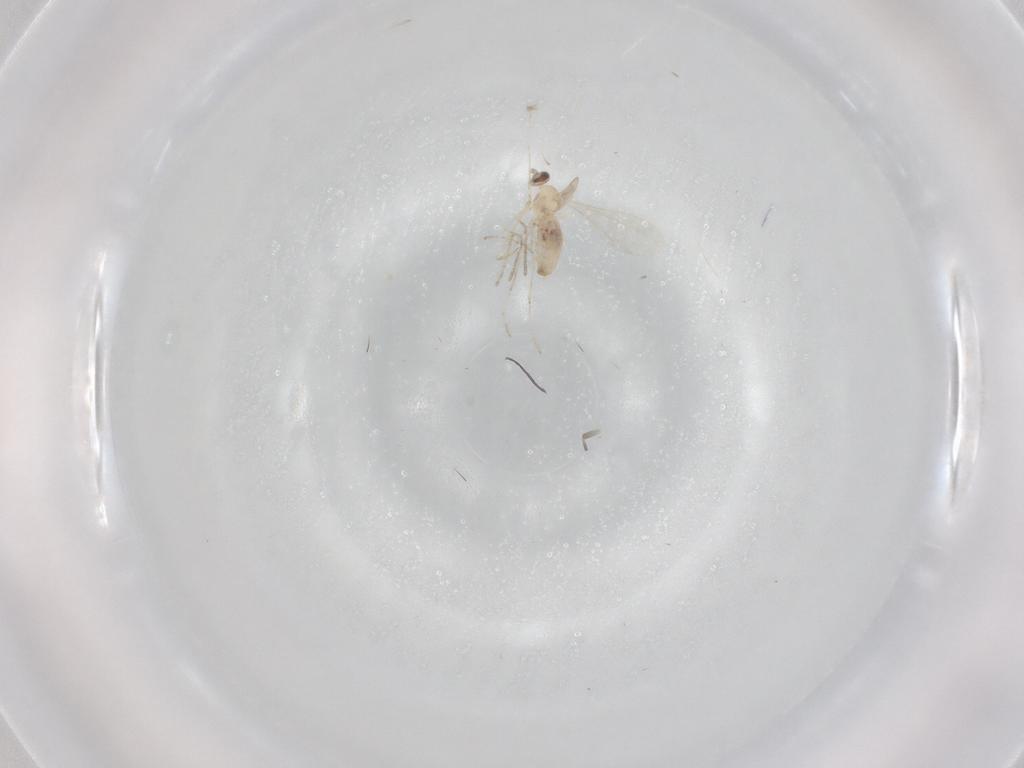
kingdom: Animalia
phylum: Arthropoda
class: Insecta
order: Diptera
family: Cecidomyiidae
